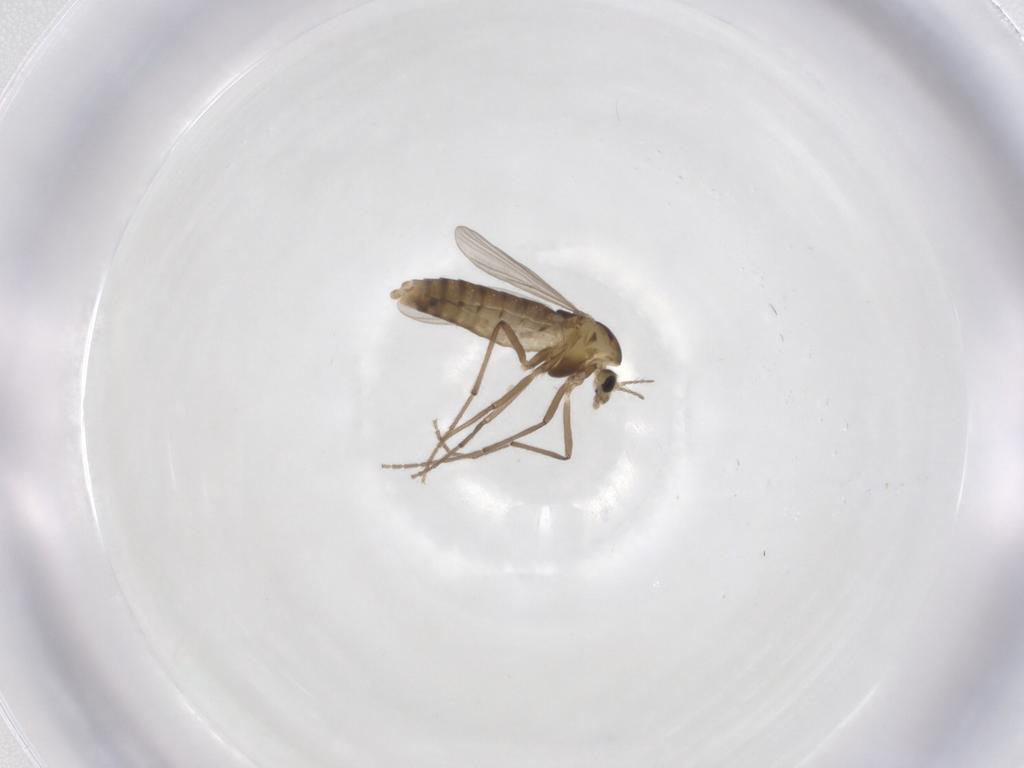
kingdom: Animalia
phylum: Arthropoda
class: Insecta
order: Diptera
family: Chironomidae
